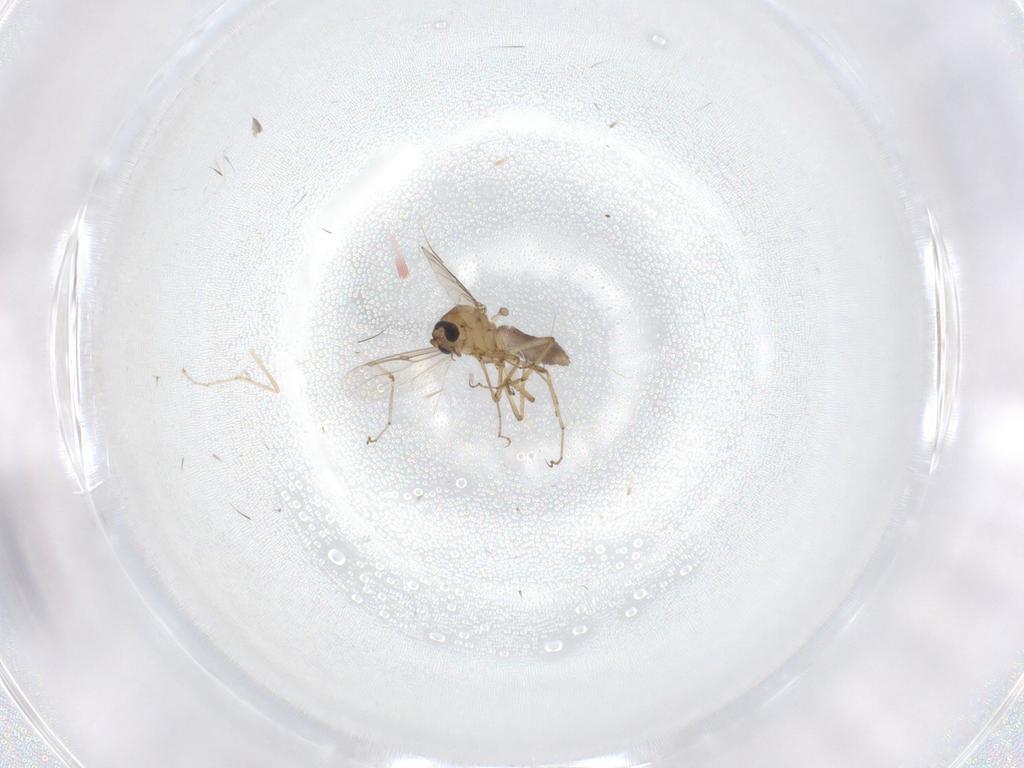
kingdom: Animalia
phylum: Arthropoda
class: Insecta
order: Diptera
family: Ceratopogonidae
